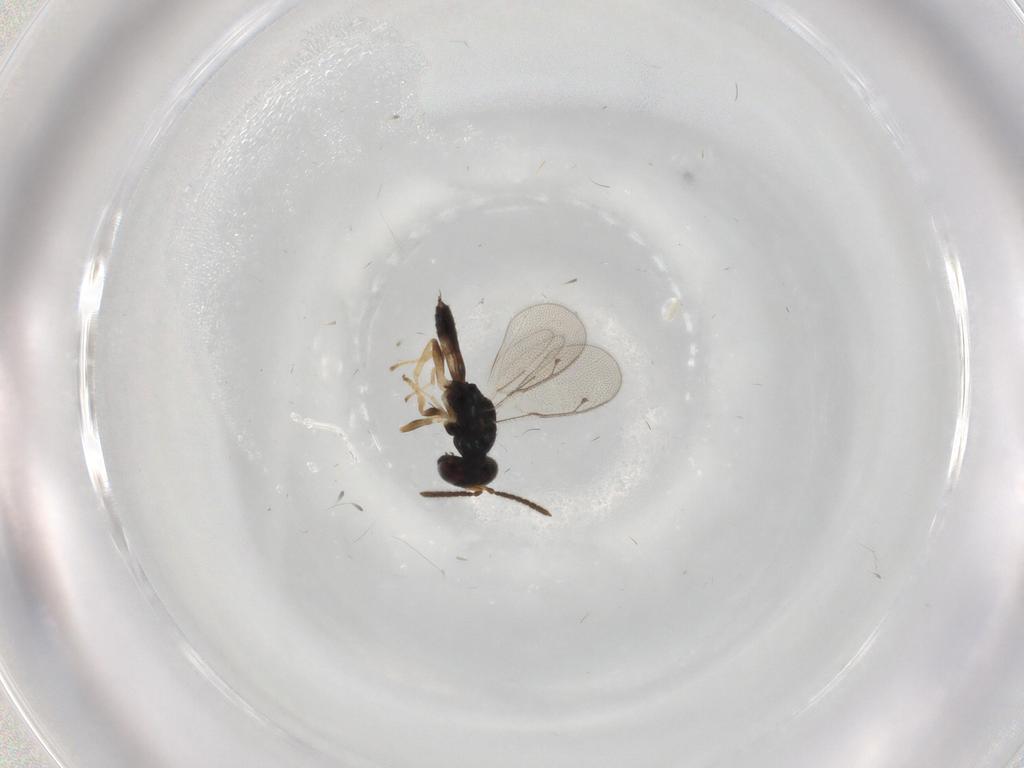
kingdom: Animalia
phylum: Arthropoda
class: Insecta
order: Hymenoptera
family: Pteromalidae
